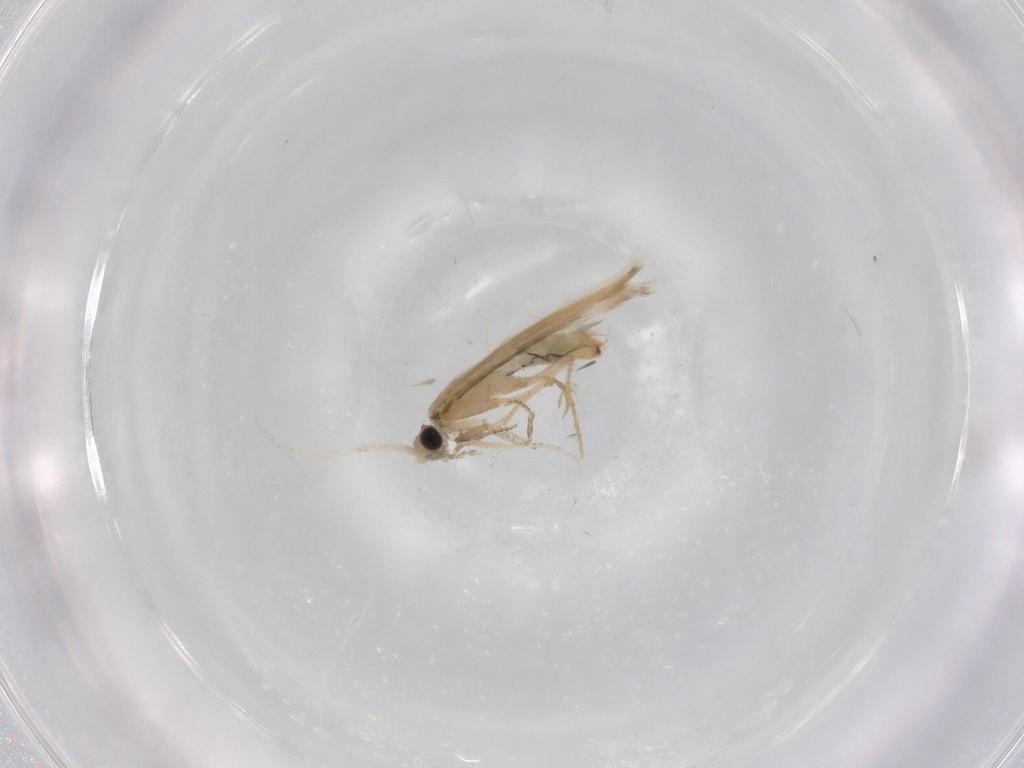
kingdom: Animalia
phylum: Arthropoda
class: Insecta
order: Trichoptera
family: Hydroptilidae
